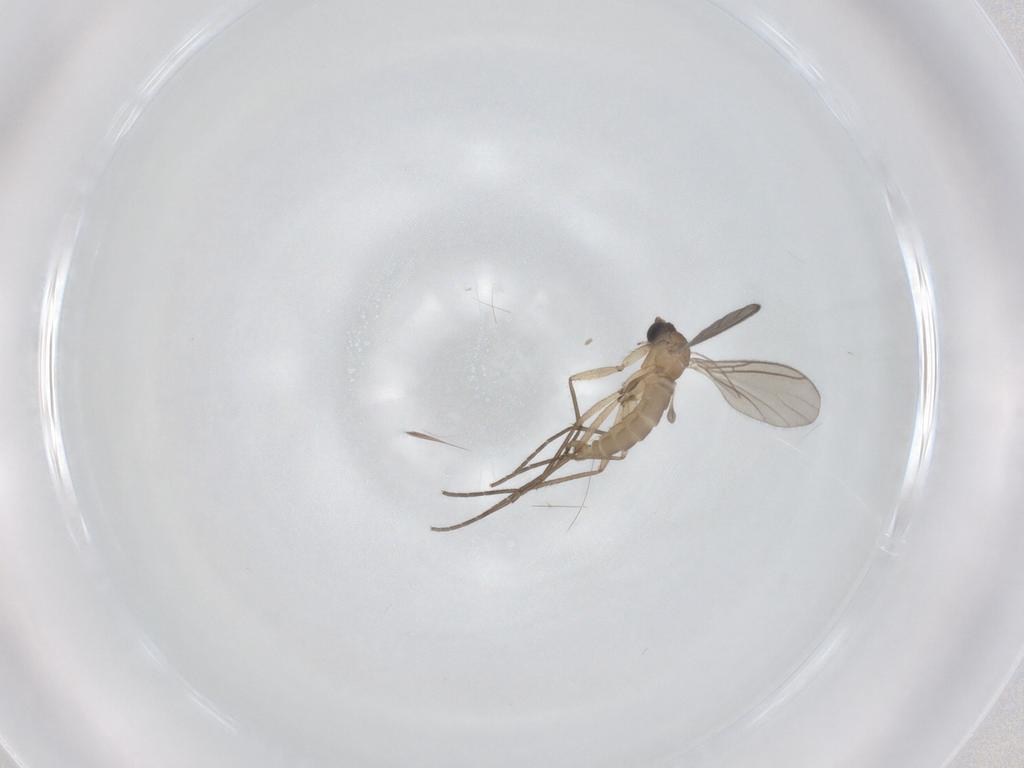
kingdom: Animalia
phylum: Arthropoda
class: Insecta
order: Diptera
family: Cecidomyiidae
